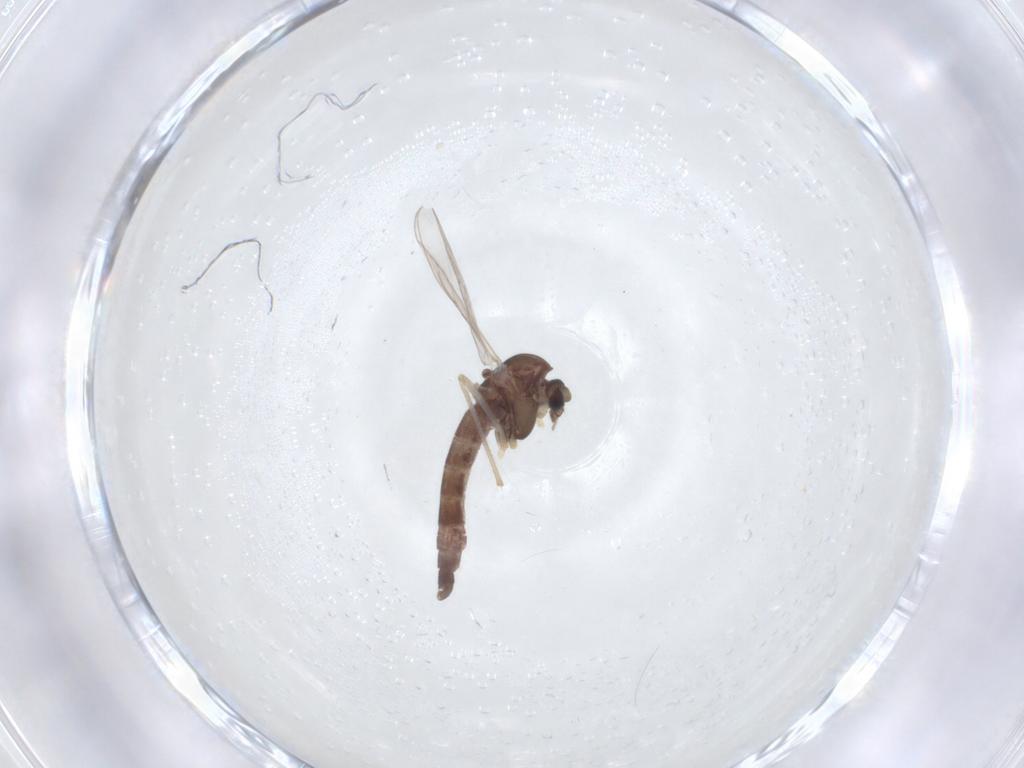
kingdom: Animalia
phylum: Arthropoda
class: Insecta
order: Diptera
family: Chironomidae
